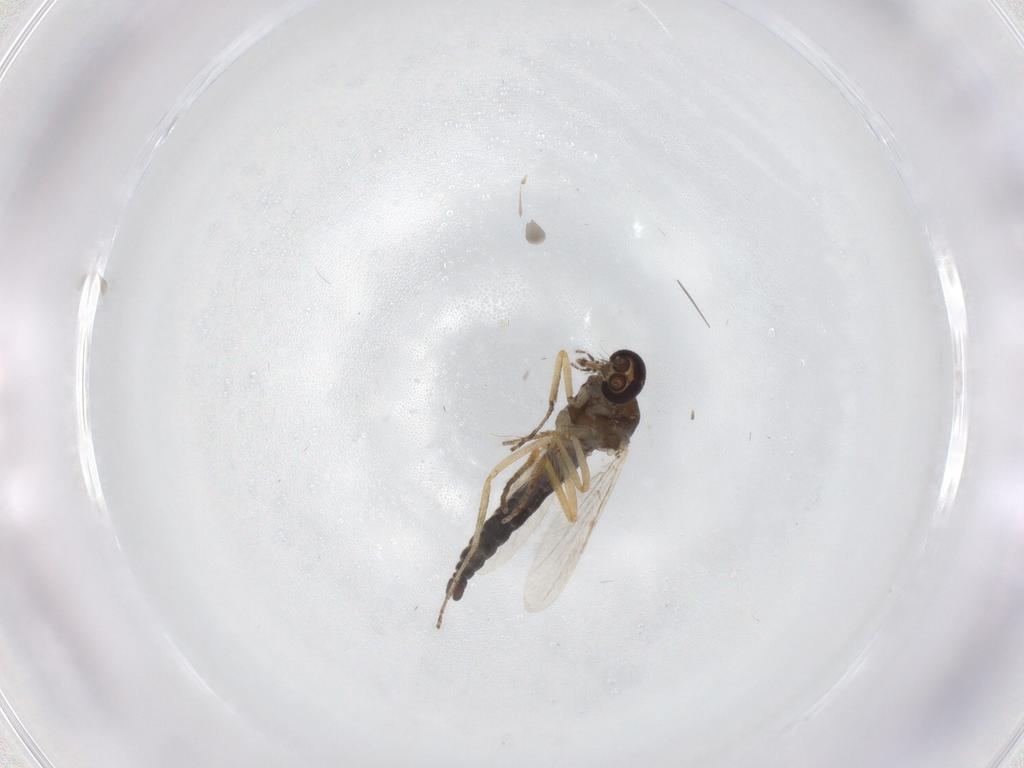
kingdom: Animalia
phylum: Arthropoda
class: Insecta
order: Diptera
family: Ceratopogonidae
